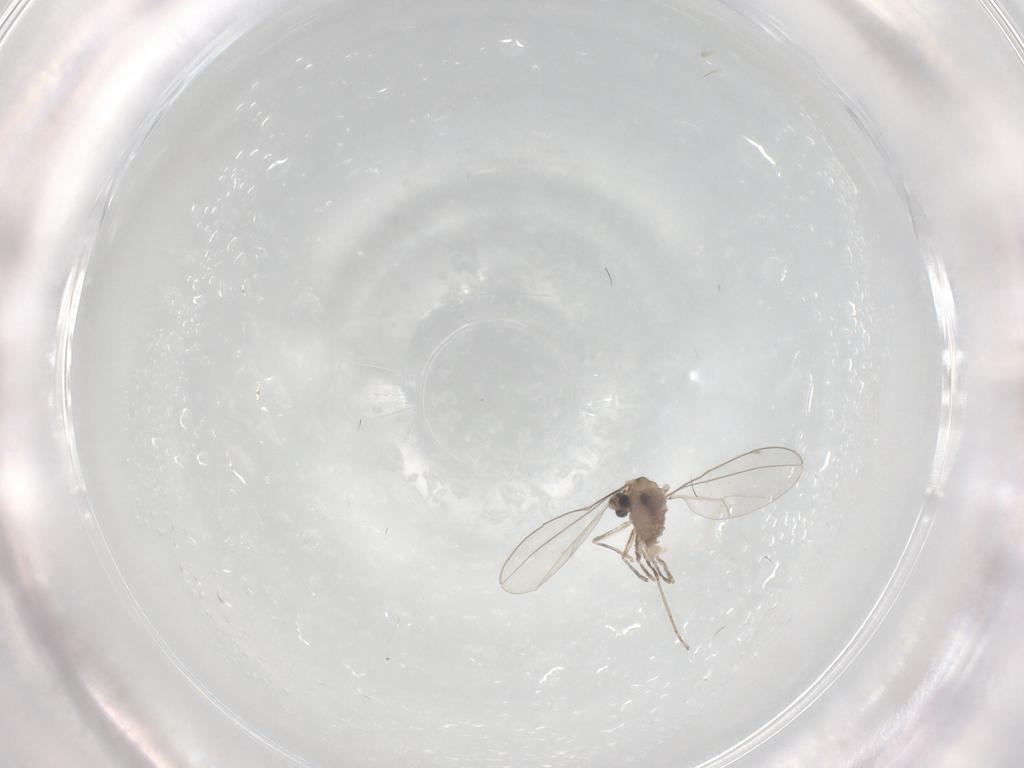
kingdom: Animalia
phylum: Arthropoda
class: Insecta
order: Diptera
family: Cecidomyiidae
